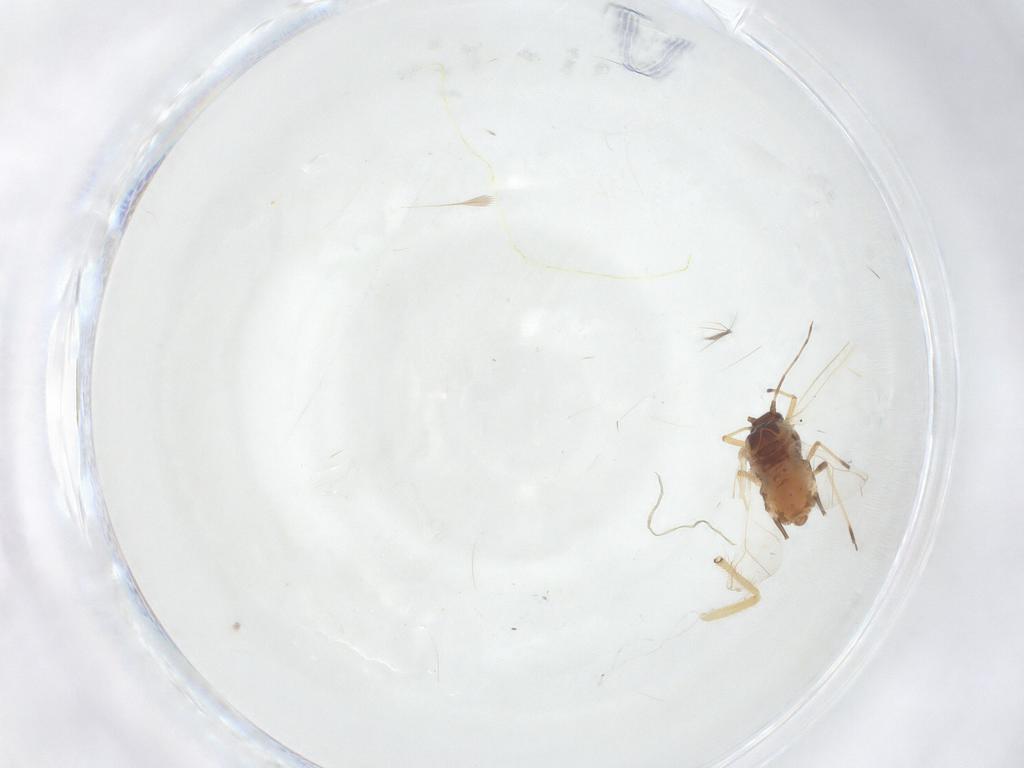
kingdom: Animalia
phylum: Arthropoda
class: Insecta
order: Hemiptera
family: Aphididae
